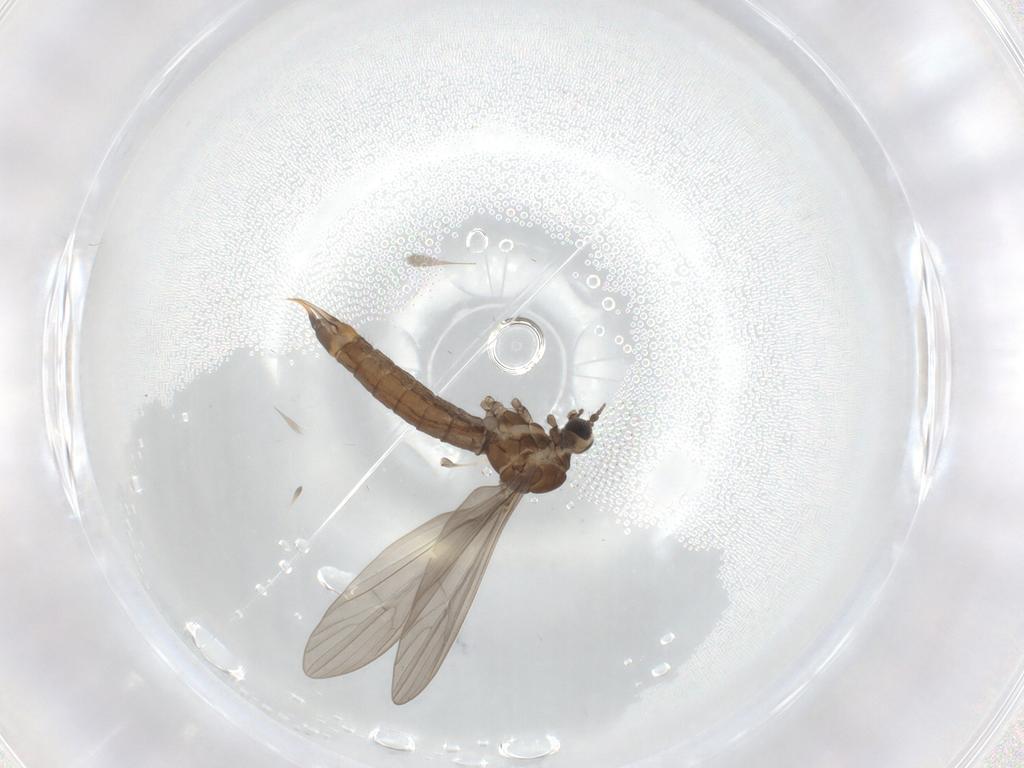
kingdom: Animalia
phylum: Arthropoda
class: Insecta
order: Diptera
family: Limoniidae
